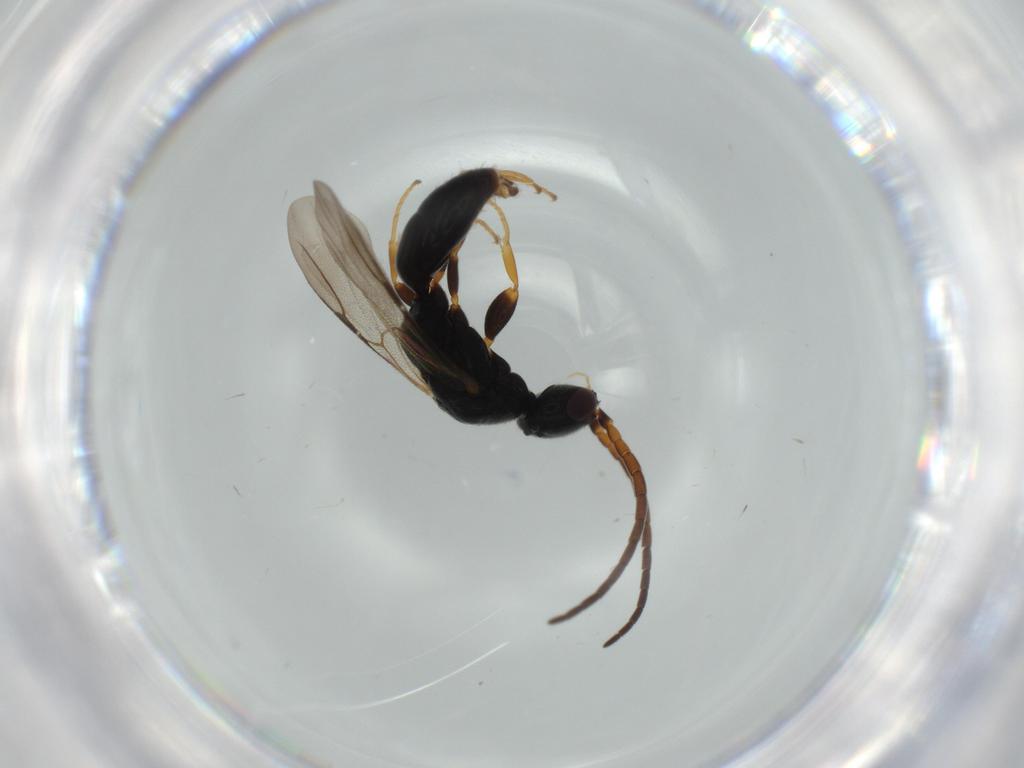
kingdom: Animalia
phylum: Arthropoda
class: Insecta
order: Hymenoptera
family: Bethylidae
